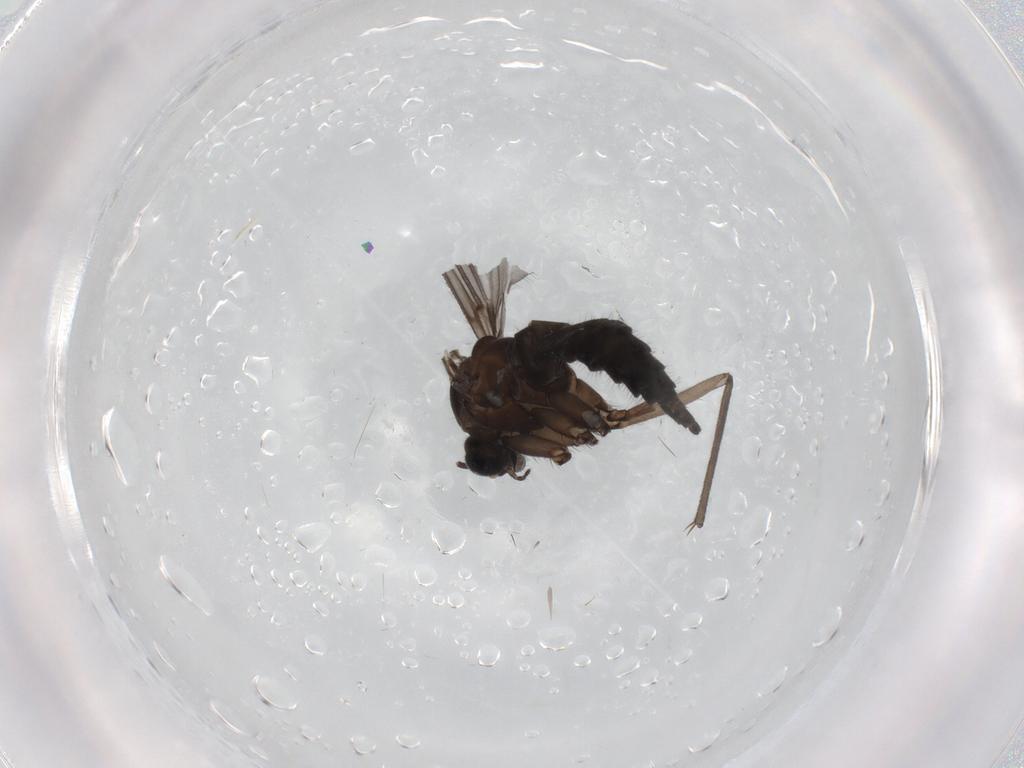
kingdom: Animalia
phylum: Arthropoda
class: Insecta
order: Diptera
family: Sciaridae
